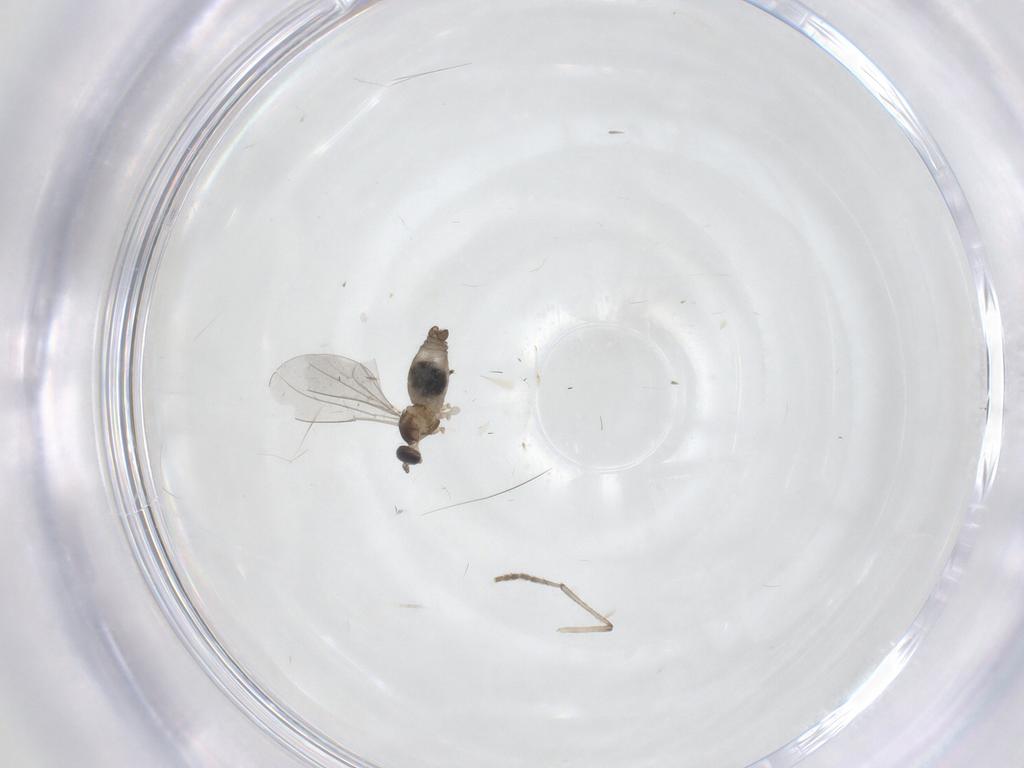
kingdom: Animalia
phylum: Arthropoda
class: Insecta
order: Diptera
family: Psychodidae
